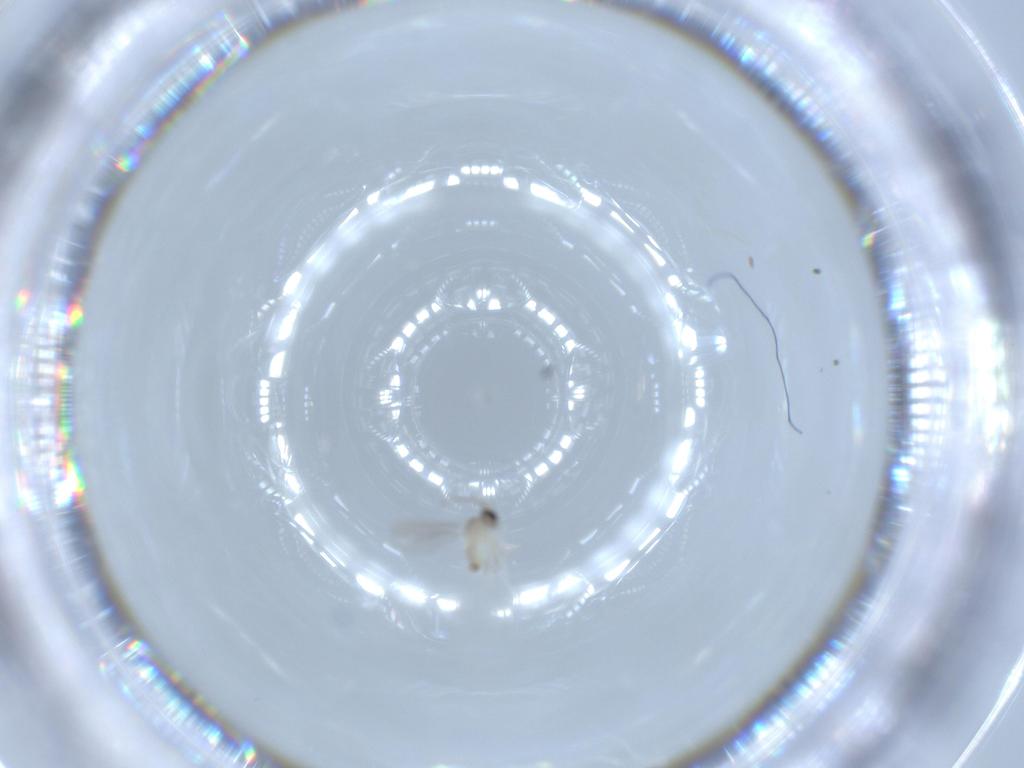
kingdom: Animalia
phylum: Arthropoda
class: Insecta
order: Diptera
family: Cecidomyiidae
